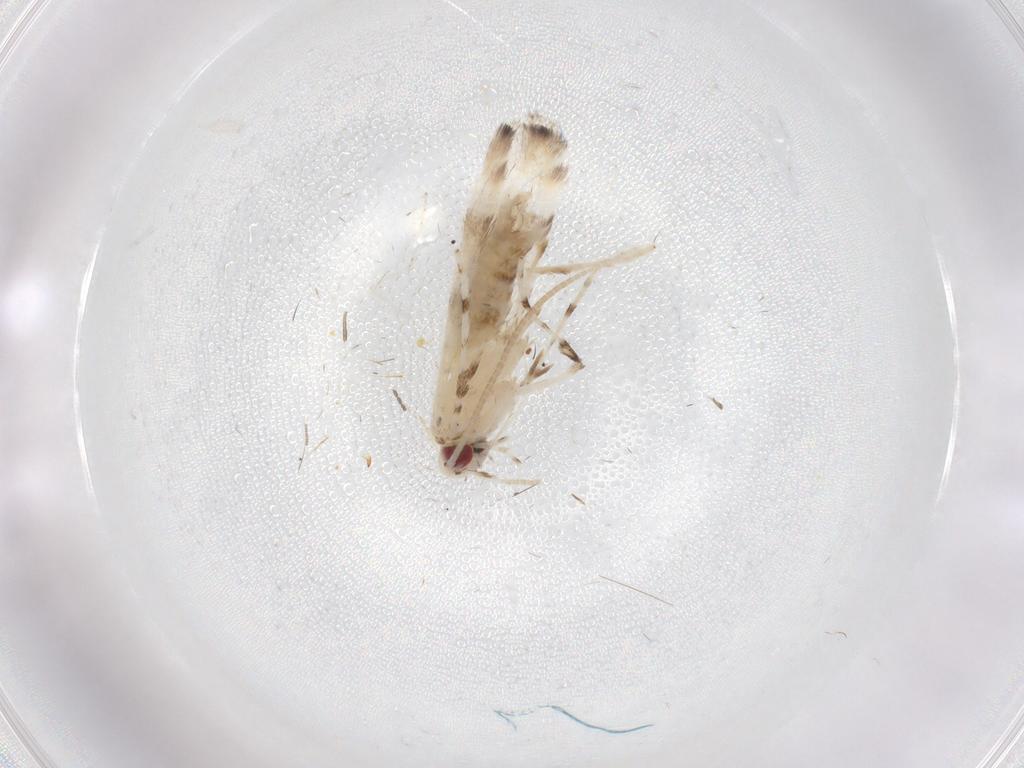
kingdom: Animalia
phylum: Arthropoda
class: Insecta
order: Lepidoptera
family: Gracillariidae
